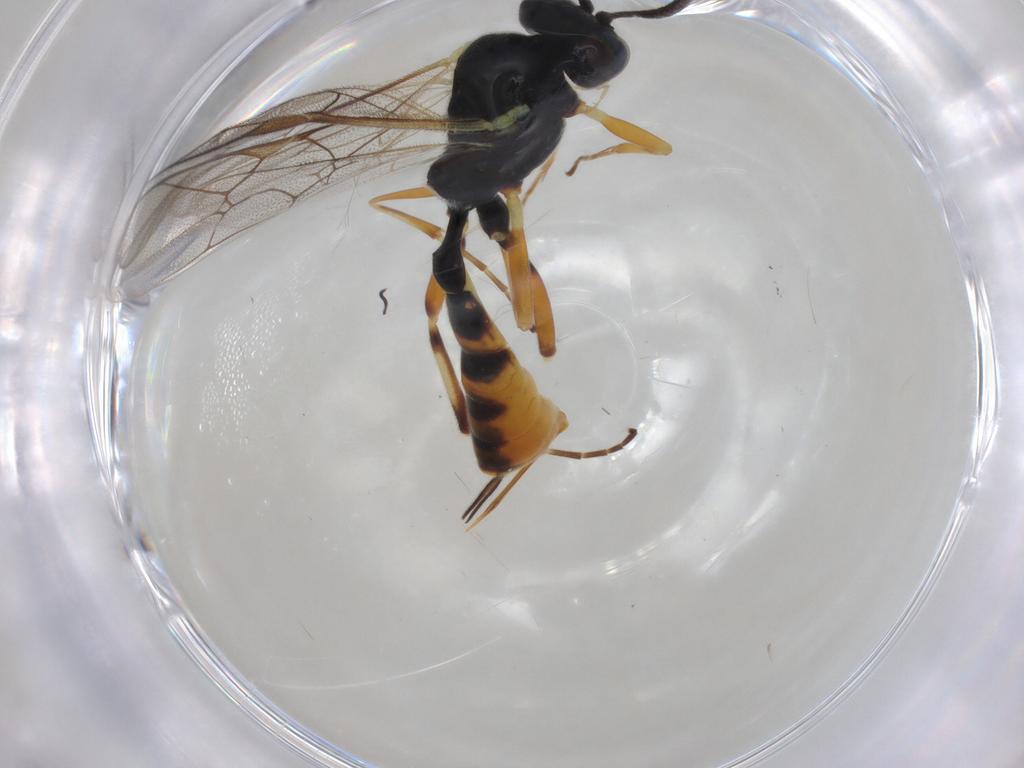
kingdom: Animalia
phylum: Arthropoda
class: Insecta
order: Hymenoptera
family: Ichneumonidae
